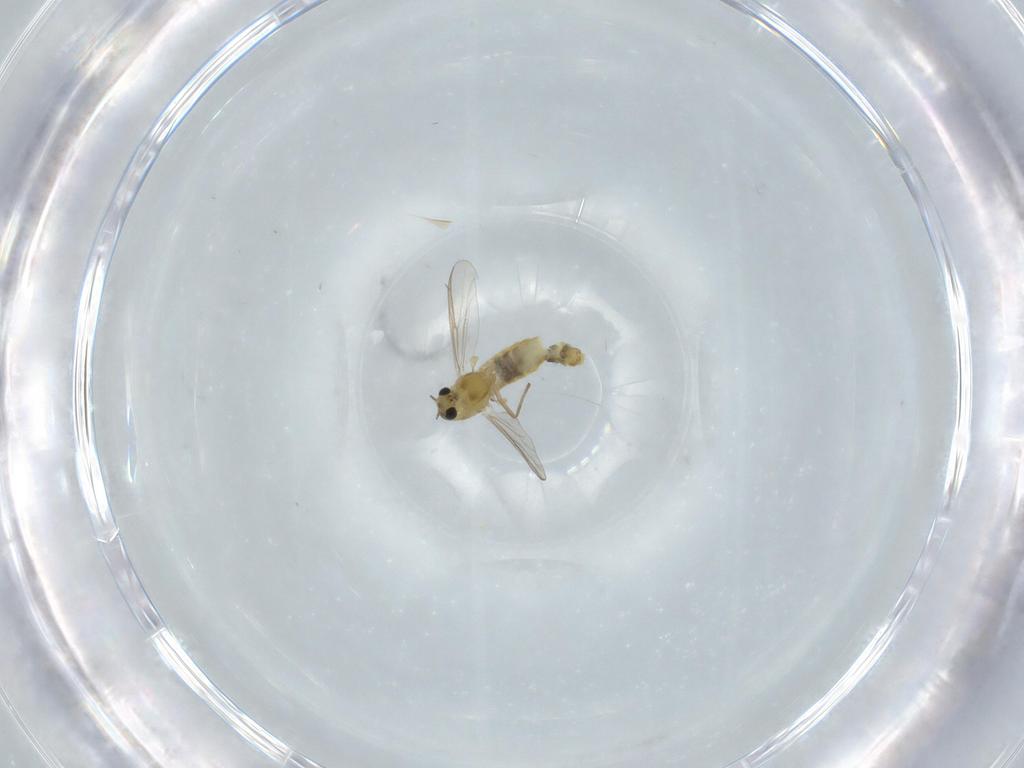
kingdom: Animalia
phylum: Arthropoda
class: Insecta
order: Diptera
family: Chironomidae
